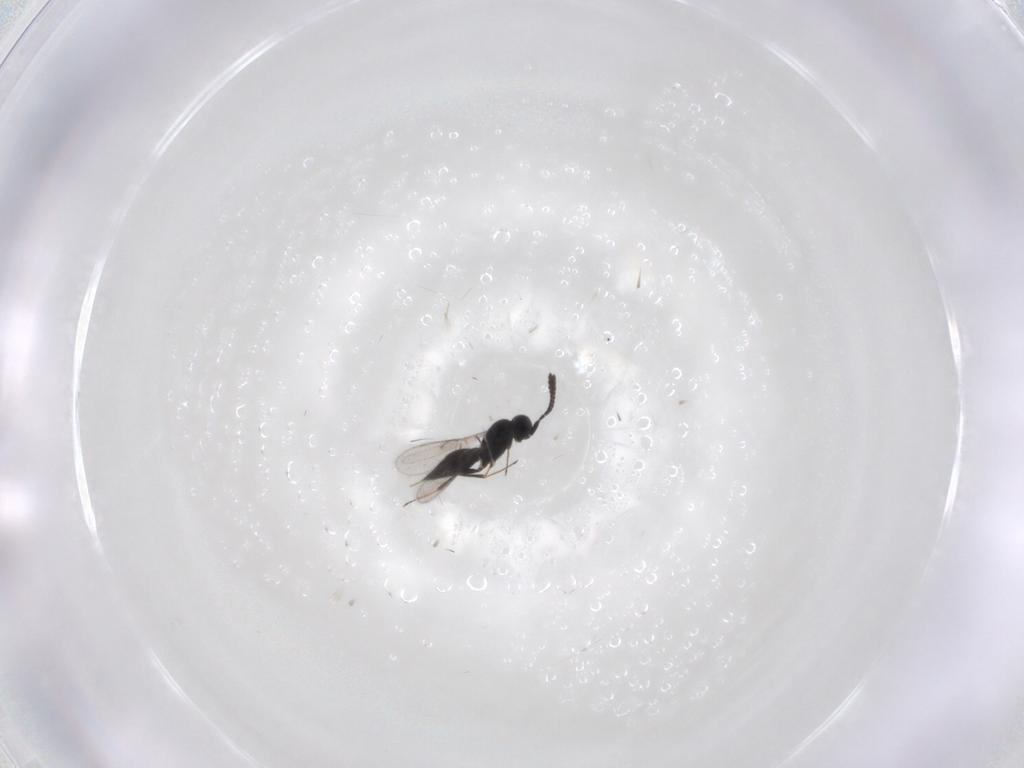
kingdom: Animalia
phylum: Arthropoda
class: Insecta
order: Hymenoptera
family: Scelionidae
